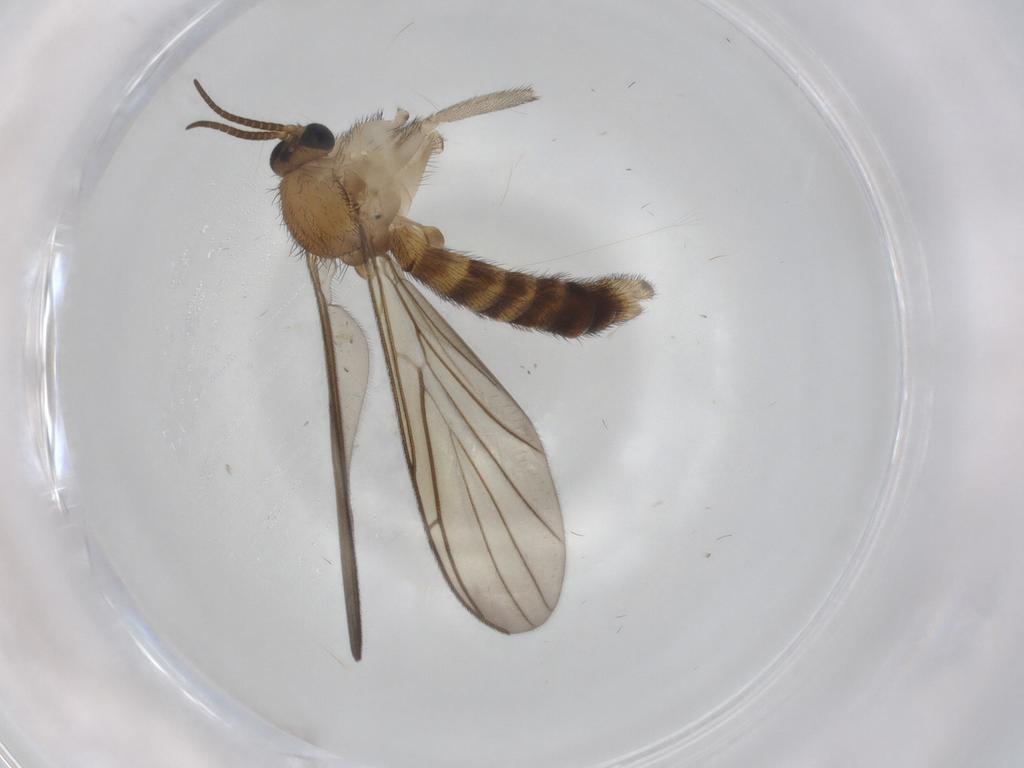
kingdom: Animalia
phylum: Arthropoda
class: Insecta
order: Diptera
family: Keroplatidae
